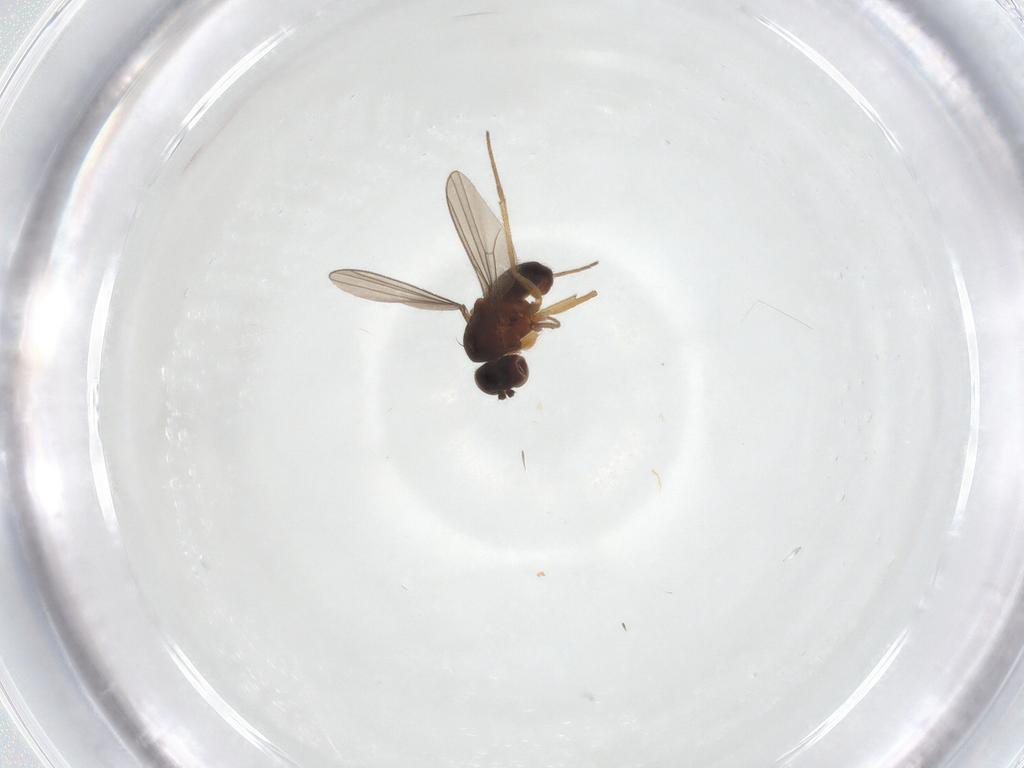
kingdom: Animalia
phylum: Arthropoda
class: Insecta
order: Diptera
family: Dolichopodidae
